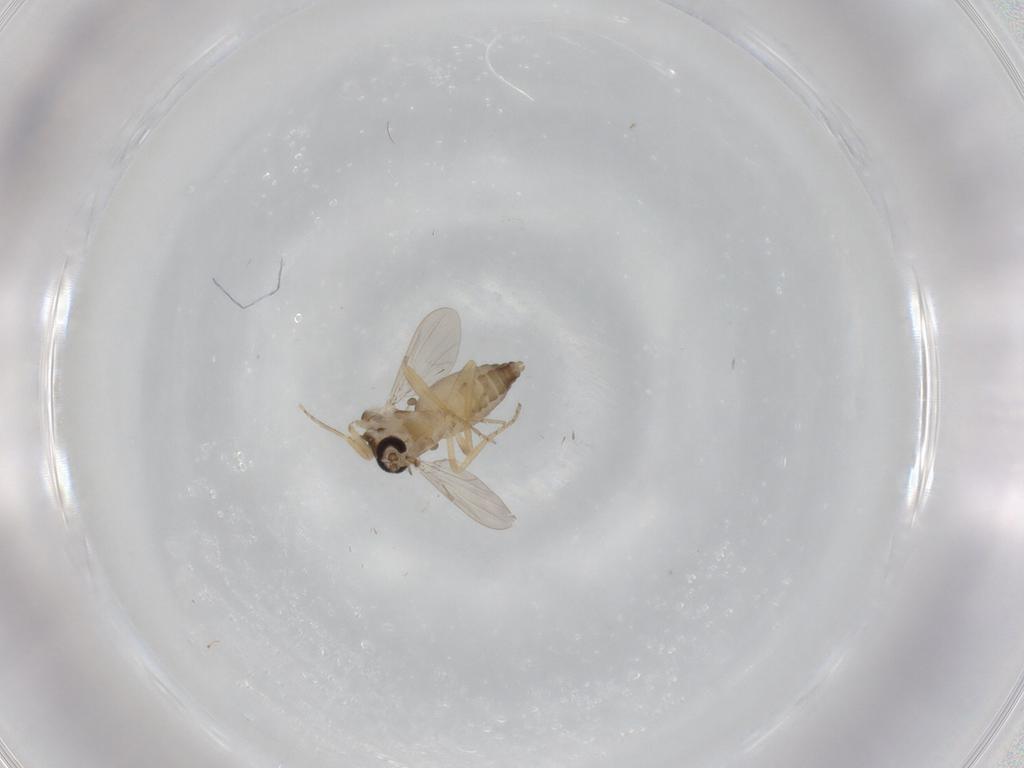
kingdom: Animalia
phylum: Arthropoda
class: Insecta
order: Diptera
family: Ceratopogonidae
